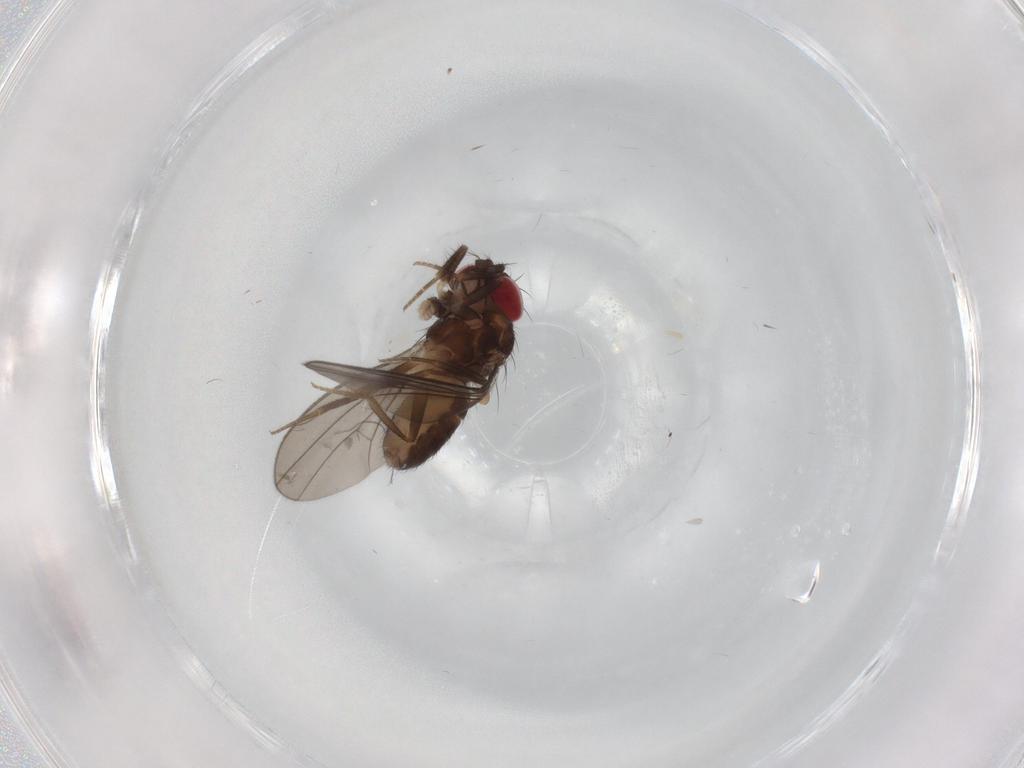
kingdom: Animalia
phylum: Arthropoda
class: Insecta
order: Diptera
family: Drosophilidae
